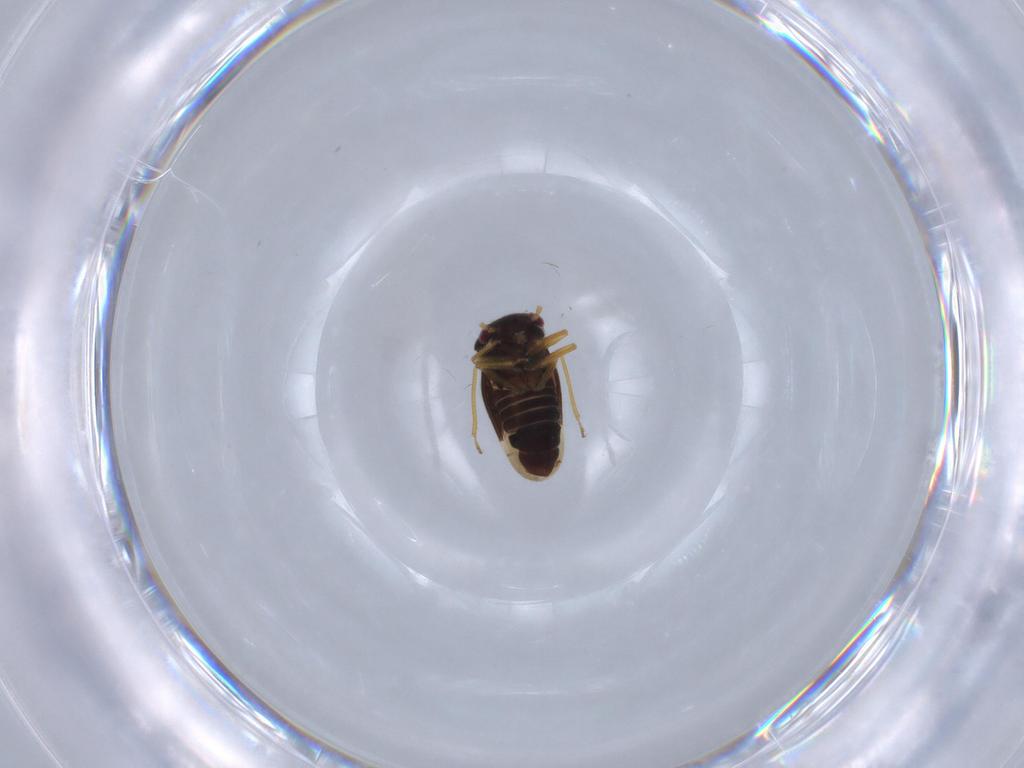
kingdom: Animalia
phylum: Arthropoda
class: Insecta
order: Hemiptera
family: Schizopteridae
